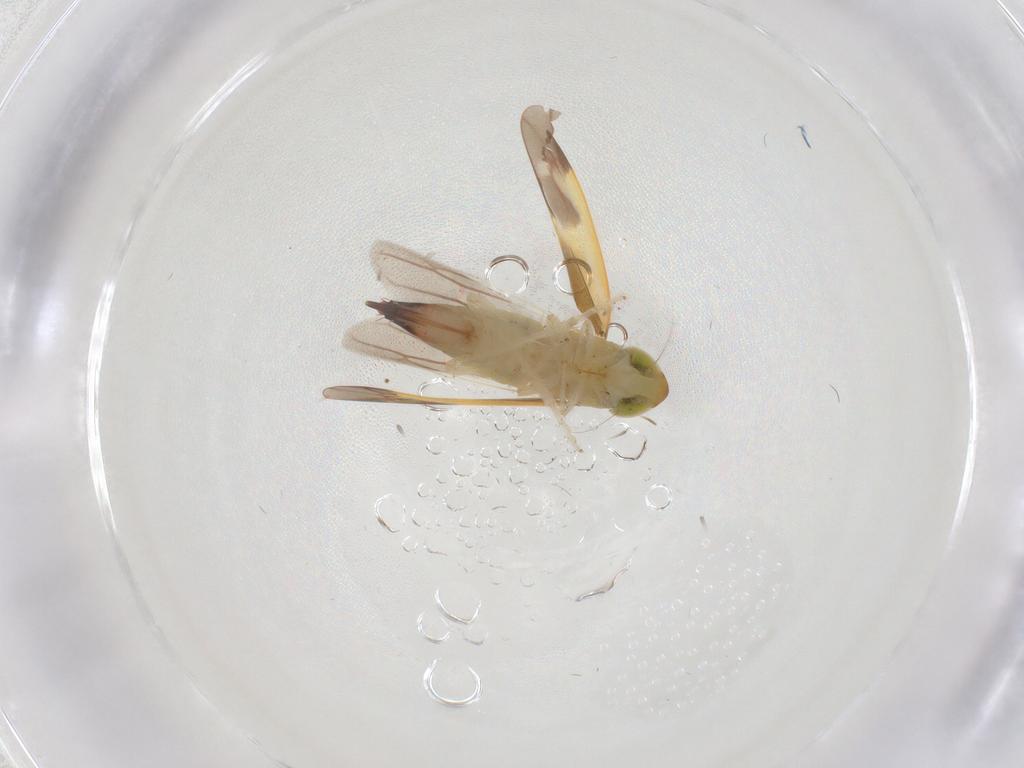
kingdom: Animalia
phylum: Arthropoda
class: Insecta
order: Hemiptera
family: Cicadellidae
